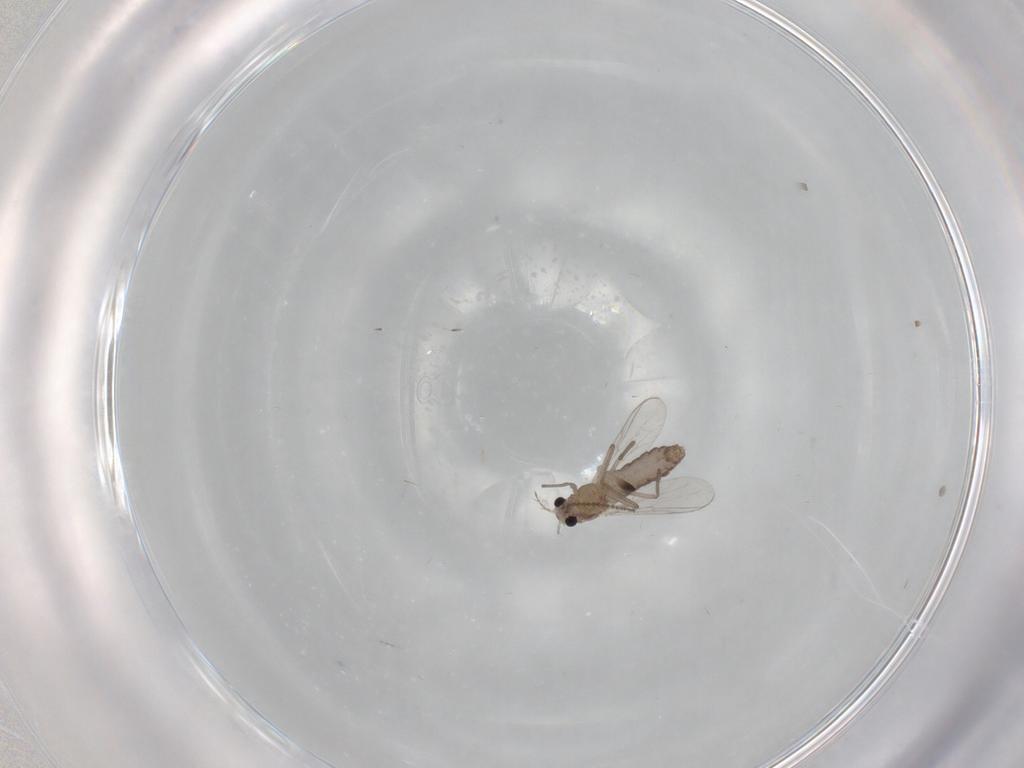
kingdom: Animalia
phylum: Arthropoda
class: Insecta
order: Diptera
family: Chironomidae
